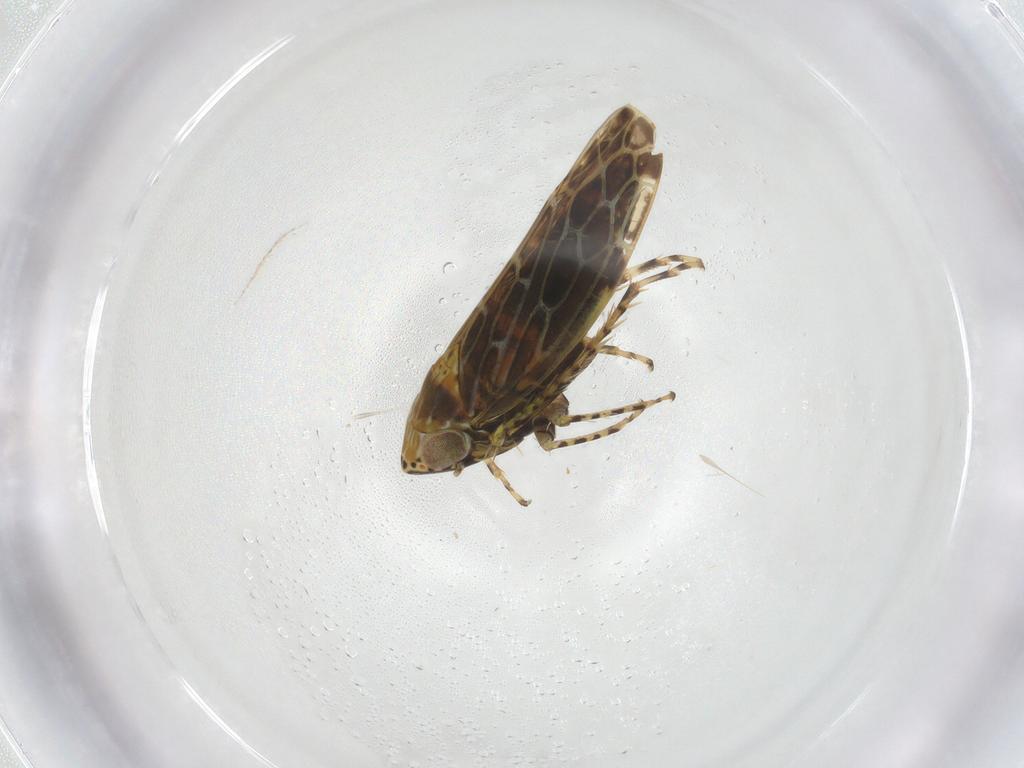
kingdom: Animalia
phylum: Arthropoda
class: Insecta
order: Hemiptera
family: Cicadellidae
